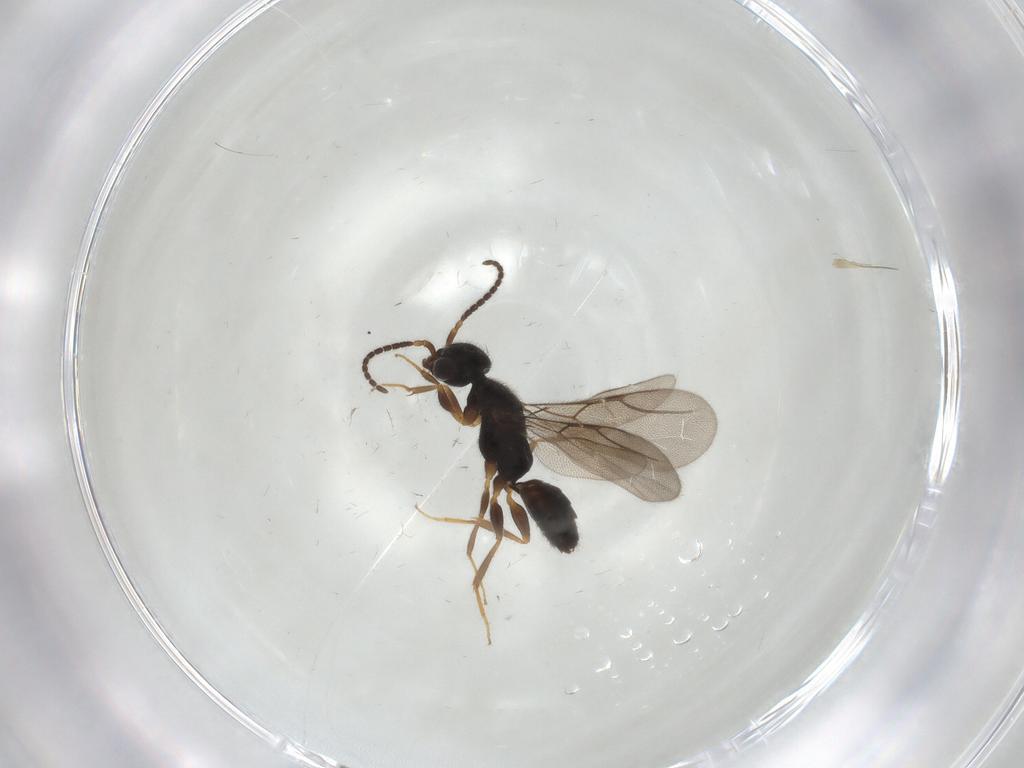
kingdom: Animalia
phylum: Arthropoda
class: Insecta
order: Hymenoptera
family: Bethylidae
